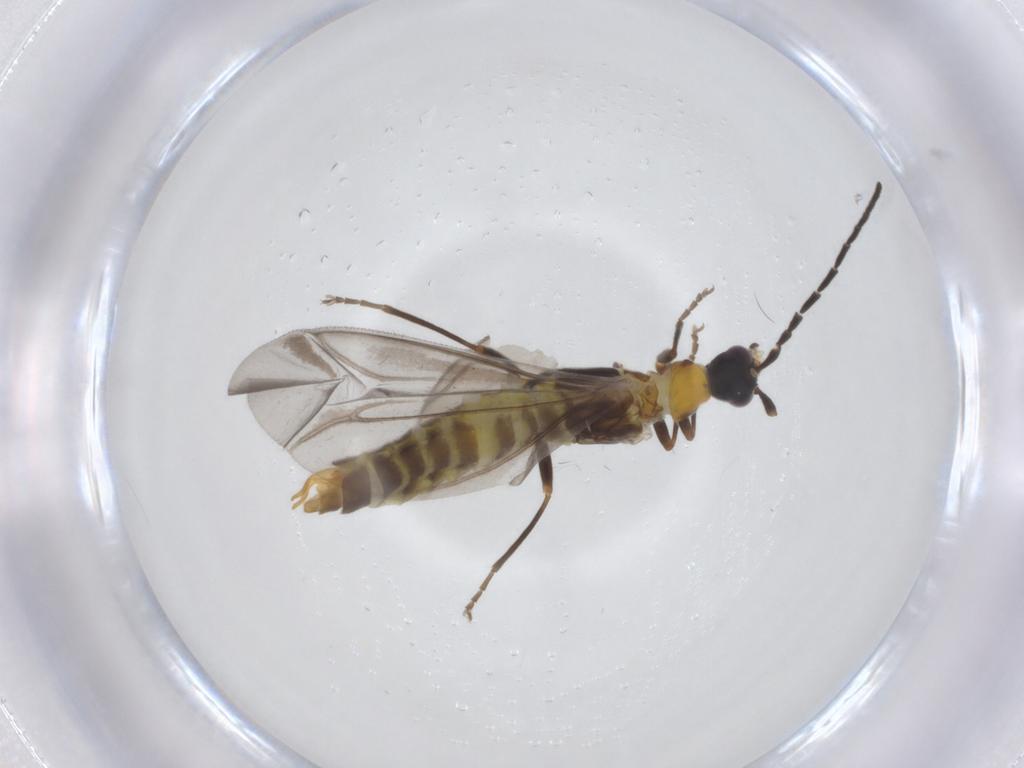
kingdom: Animalia
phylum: Arthropoda
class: Insecta
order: Coleoptera
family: Cantharidae
